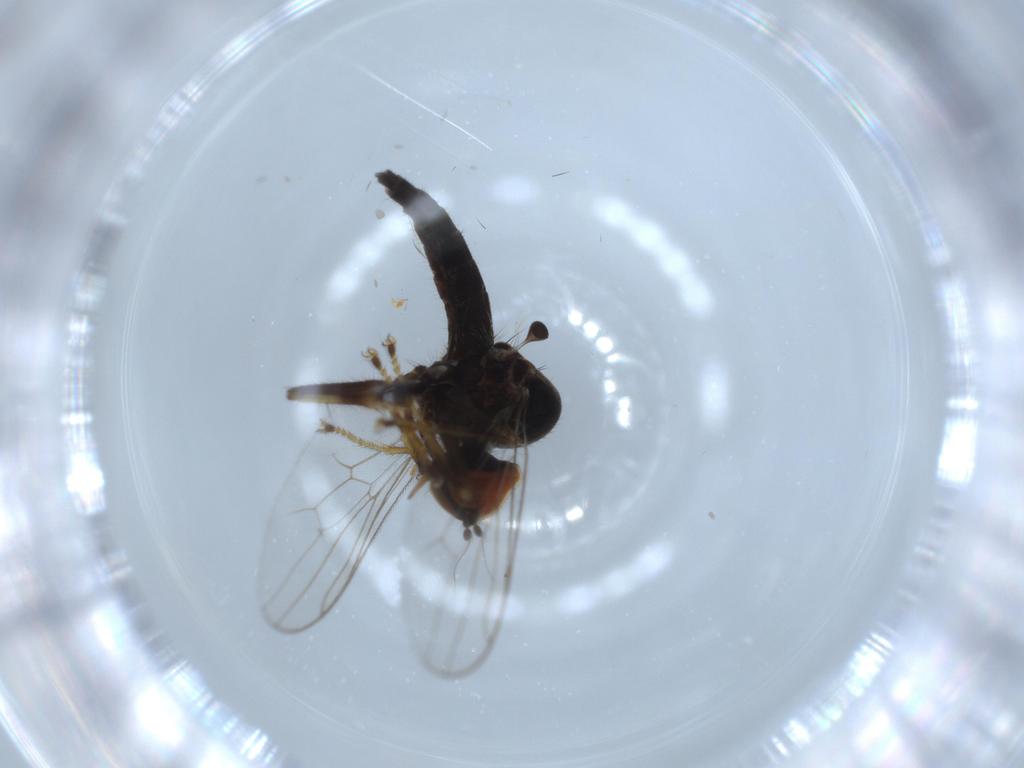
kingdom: Animalia
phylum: Arthropoda
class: Insecta
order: Diptera
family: Hybotidae
